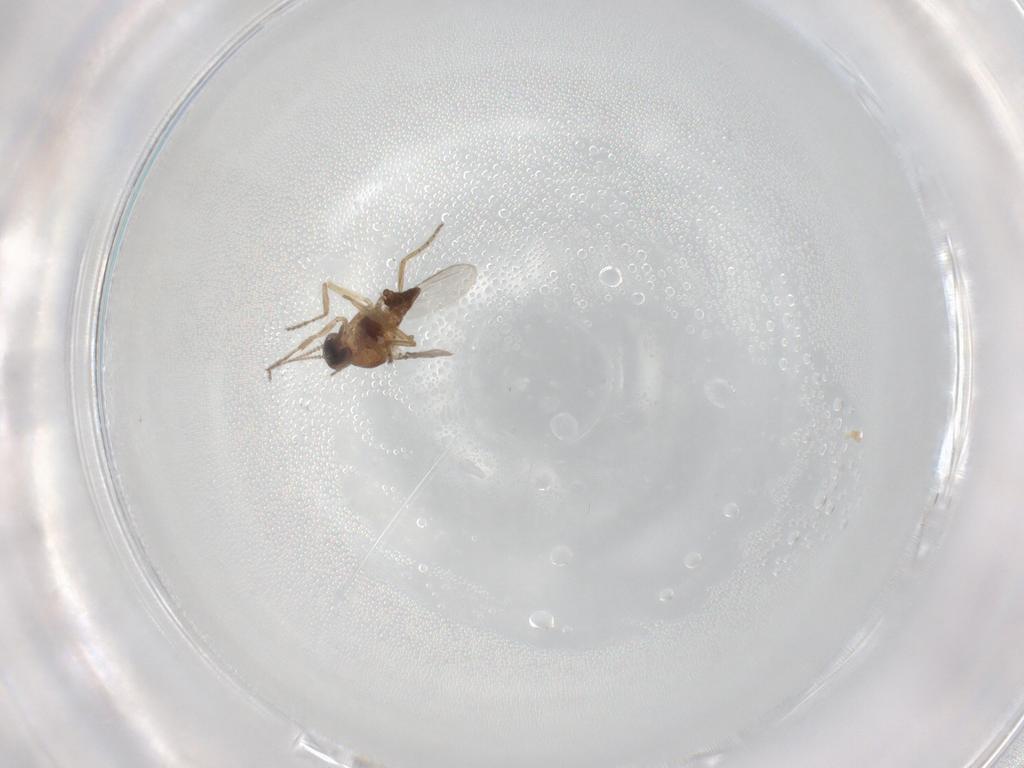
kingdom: Animalia
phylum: Arthropoda
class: Insecta
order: Diptera
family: Ceratopogonidae
